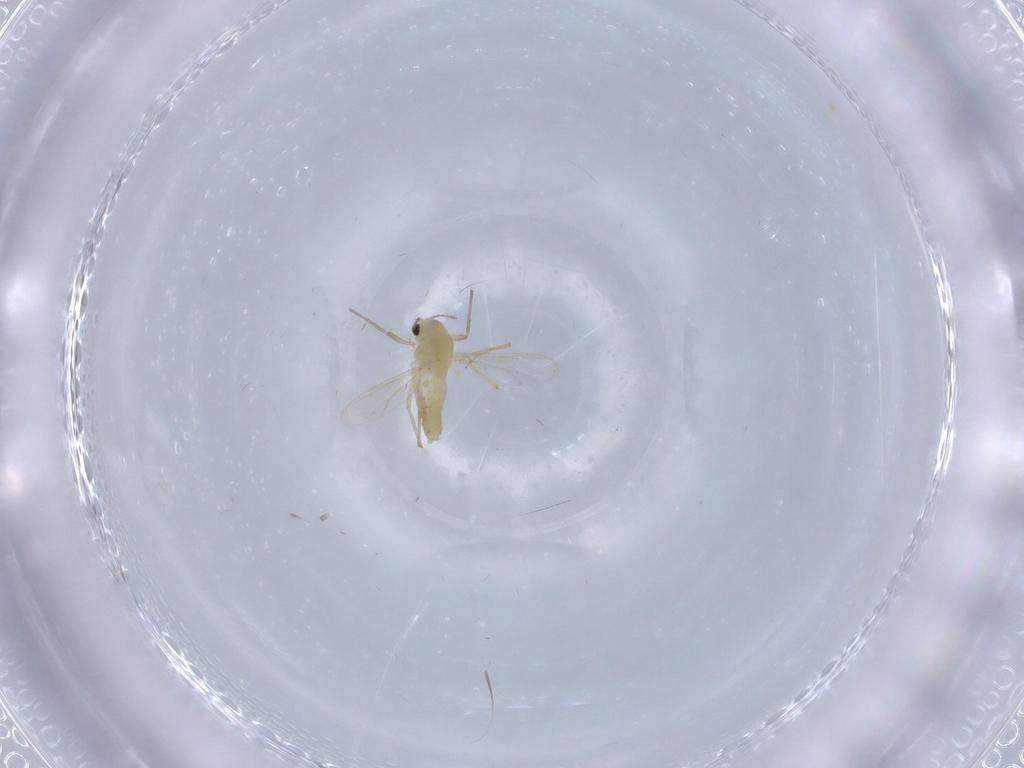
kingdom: Animalia
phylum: Arthropoda
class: Insecta
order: Diptera
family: Chironomidae
